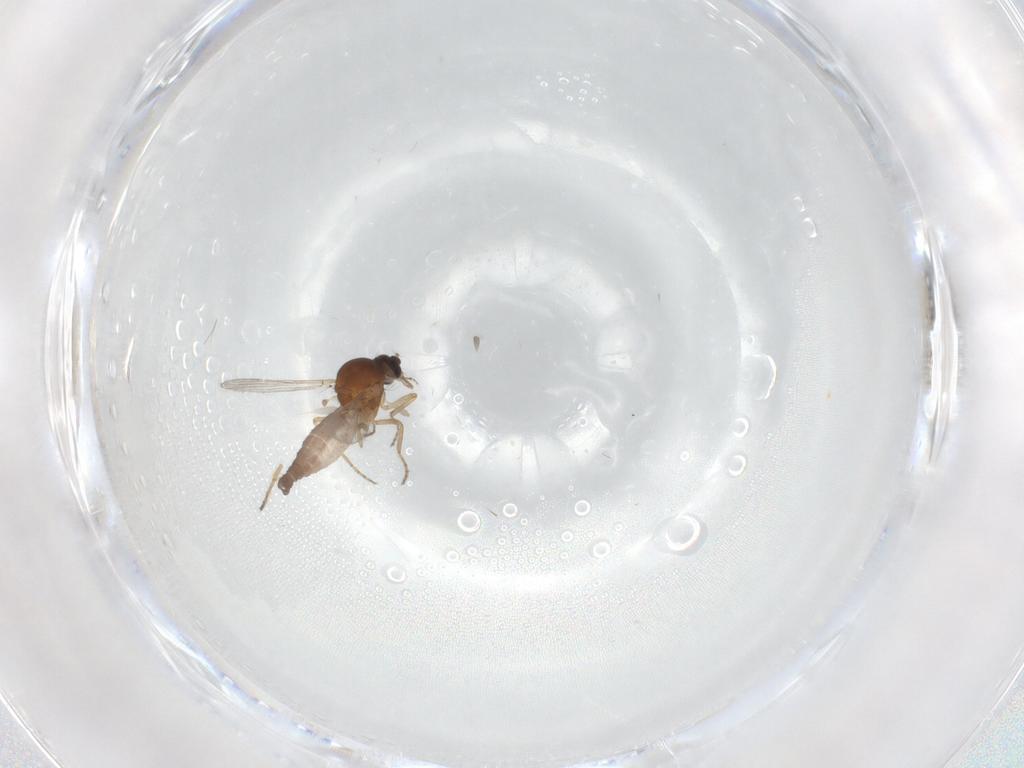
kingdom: Animalia
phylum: Arthropoda
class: Insecta
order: Diptera
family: Ceratopogonidae
